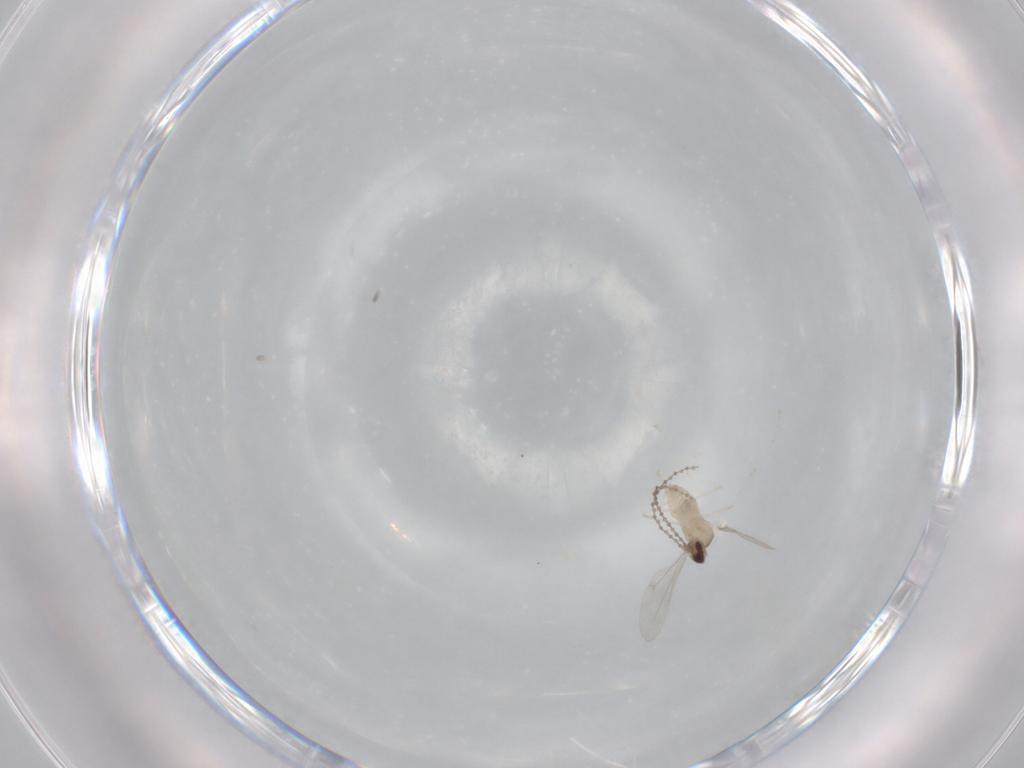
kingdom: Animalia
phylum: Arthropoda
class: Insecta
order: Diptera
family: Cecidomyiidae
